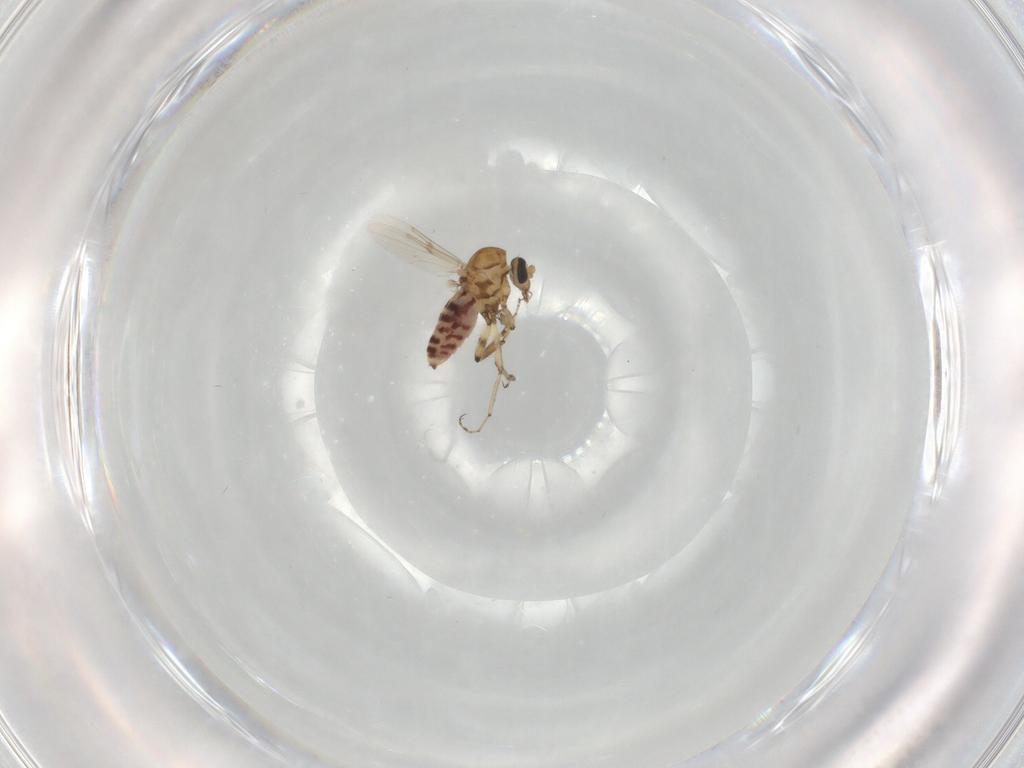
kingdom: Animalia
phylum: Arthropoda
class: Insecta
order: Diptera
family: Ceratopogonidae
